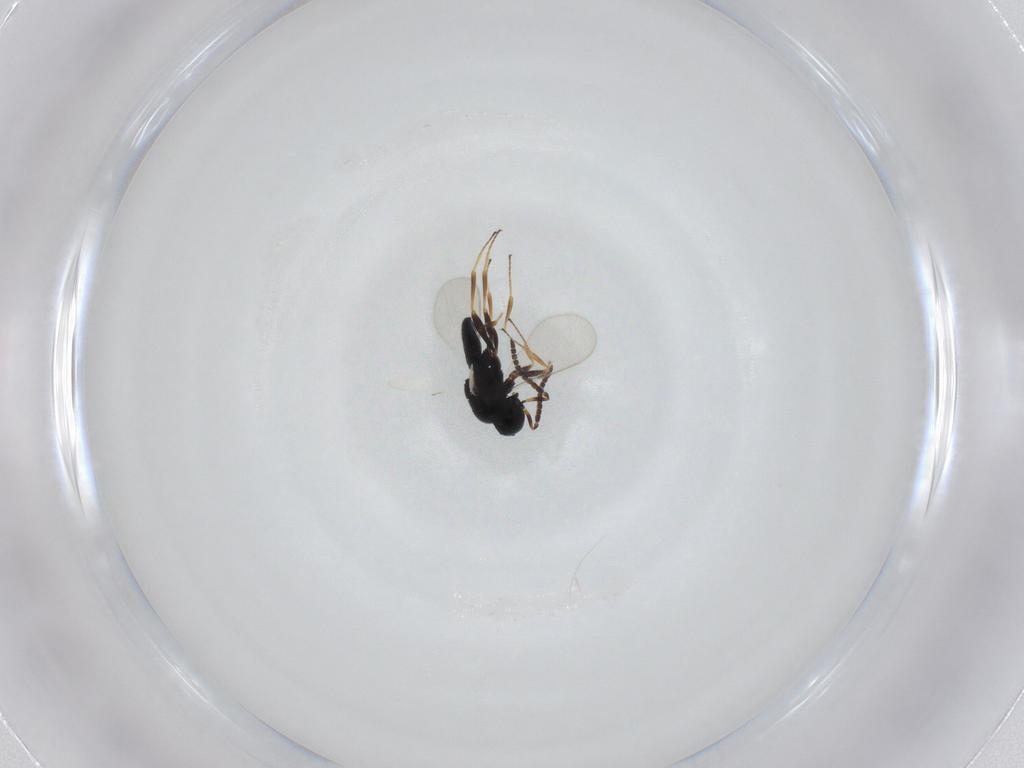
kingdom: Animalia
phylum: Arthropoda
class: Insecta
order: Hymenoptera
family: Scelionidae
